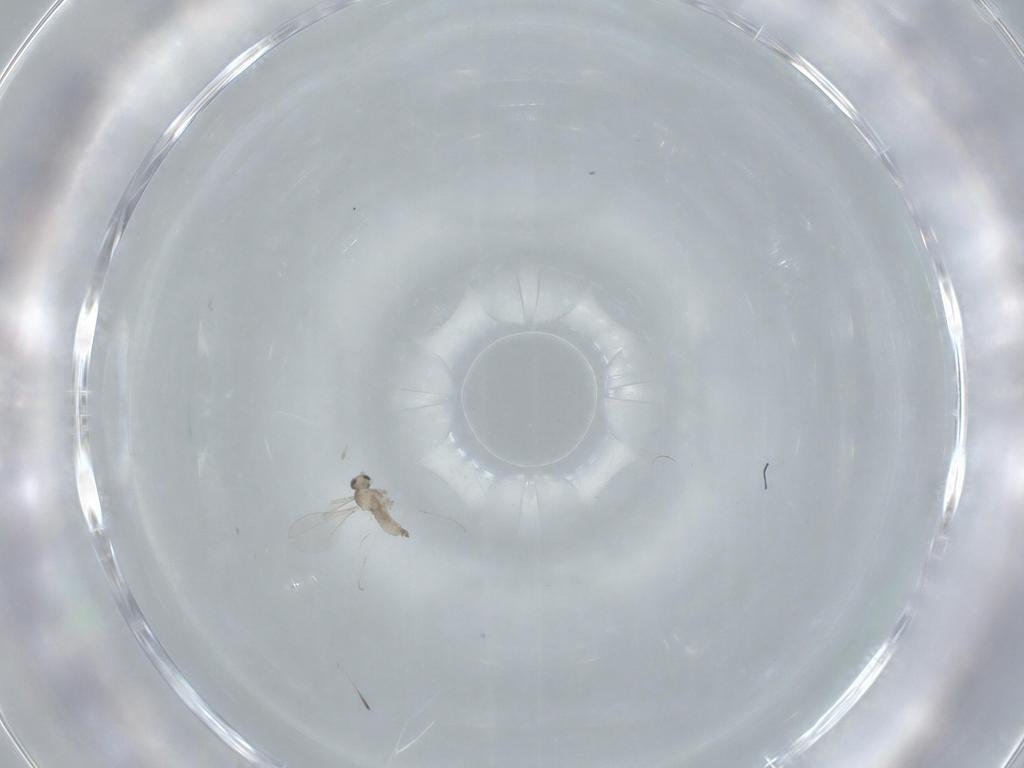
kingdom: Animalia
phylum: Arthropoda
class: Insecta
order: Diptera
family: Cecidomyiidae
